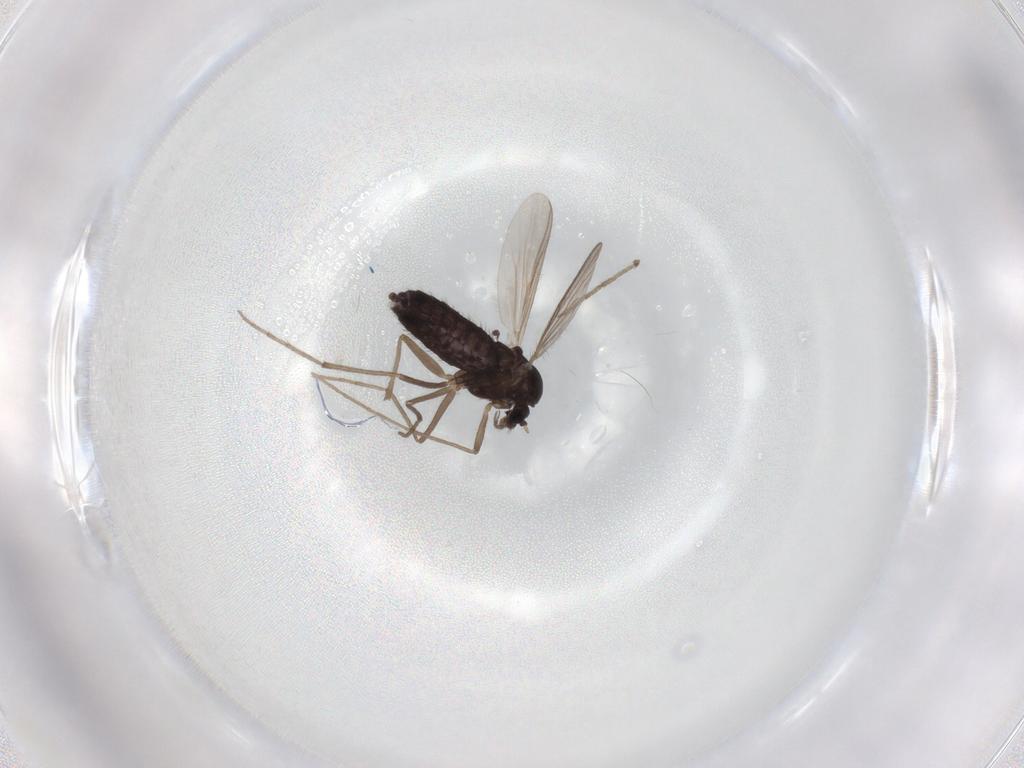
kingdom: Animalia
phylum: Arthropoda
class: Insecta
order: Diptera
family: Chironomidae
